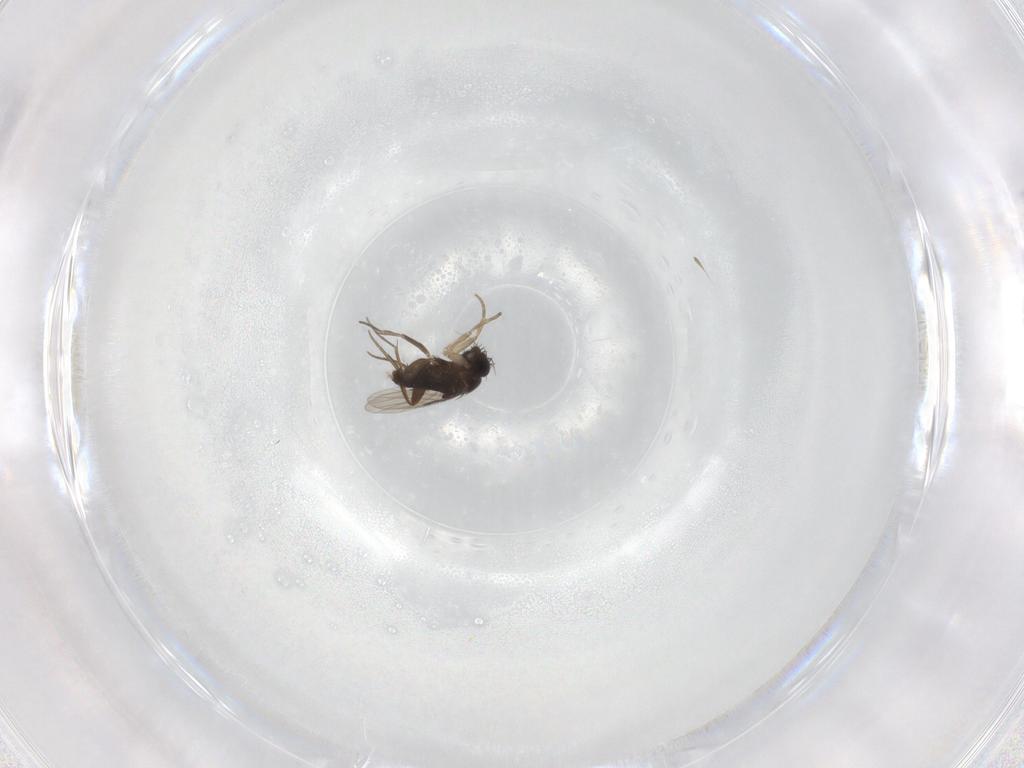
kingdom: Animalia
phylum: Arthropoda
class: Insecta
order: Diptera
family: Phoridae
